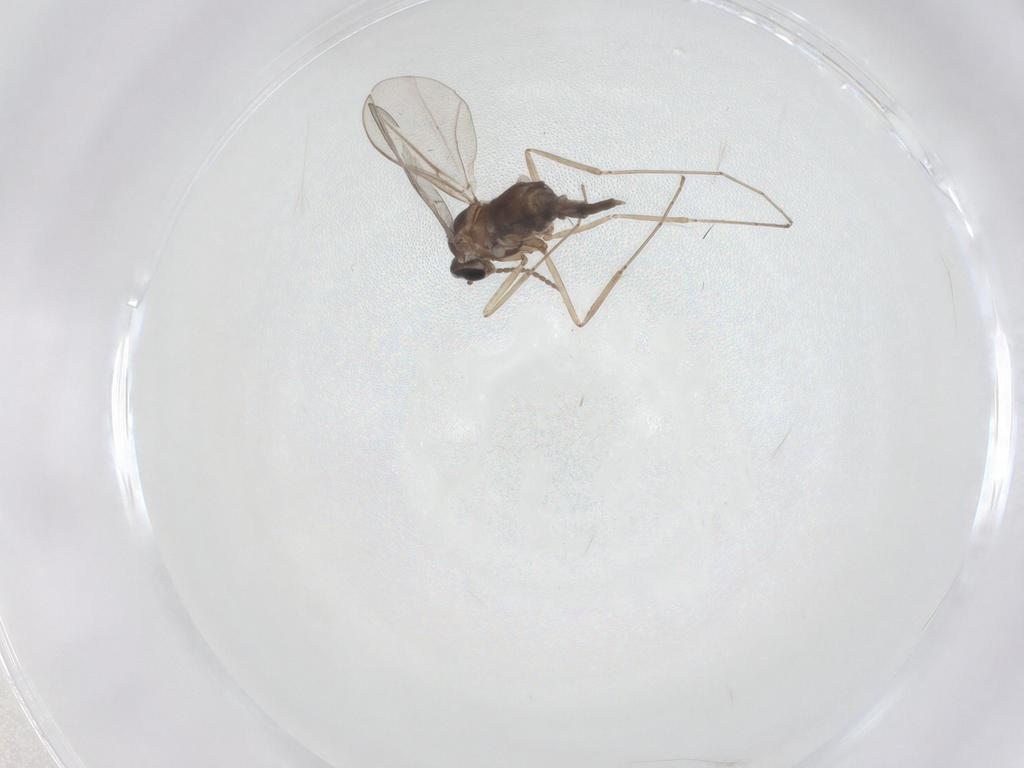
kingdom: Animalia
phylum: Arthropoda
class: Insecta
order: Diptera
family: Cecidomyiidae
